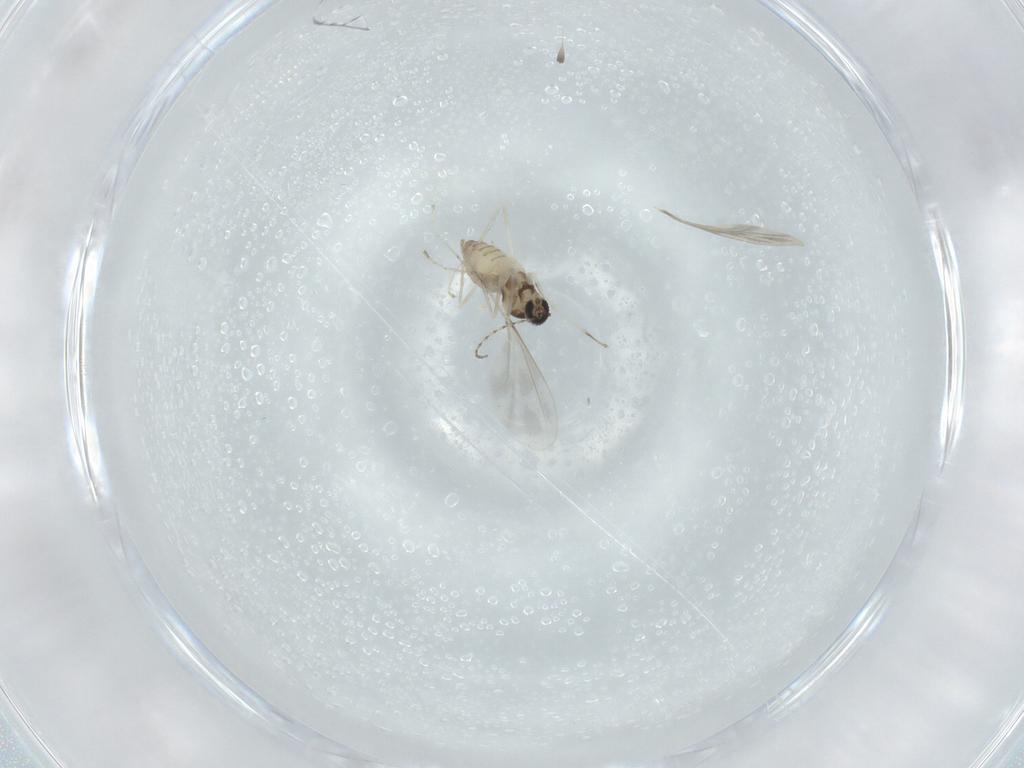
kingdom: Animalia
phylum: Arthropoda
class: Insecta
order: Diptera
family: Cecidomyiidae
